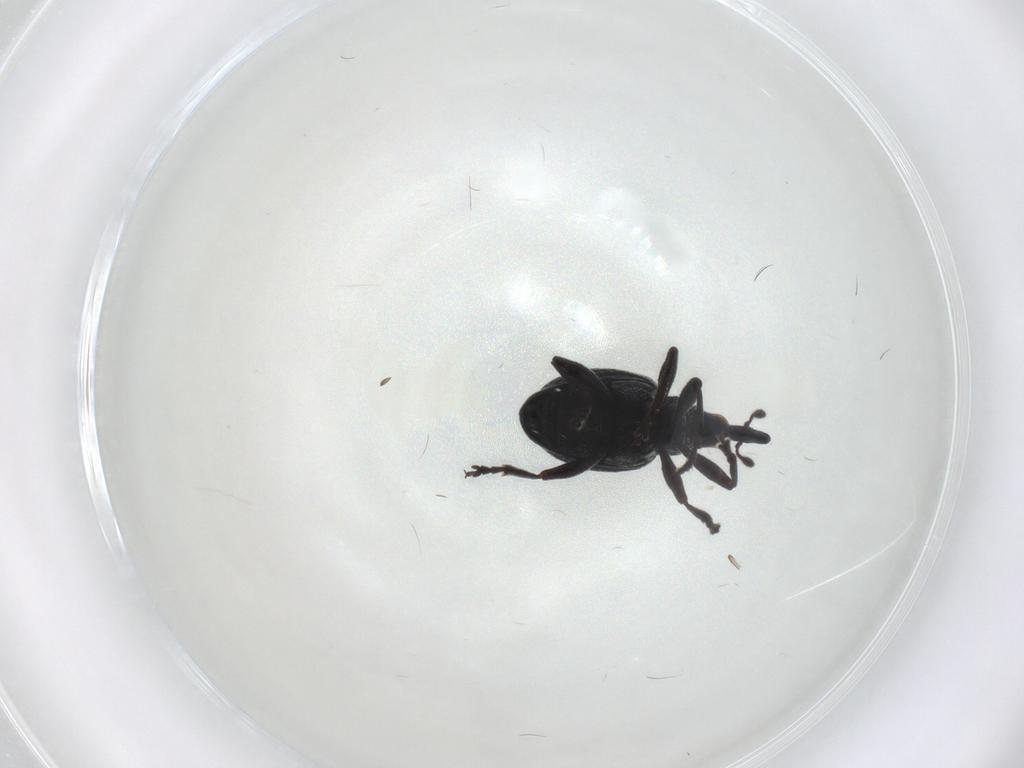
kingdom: Animalia
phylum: Arthropoda
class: Insecta
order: Coleoptera
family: Brentidae
